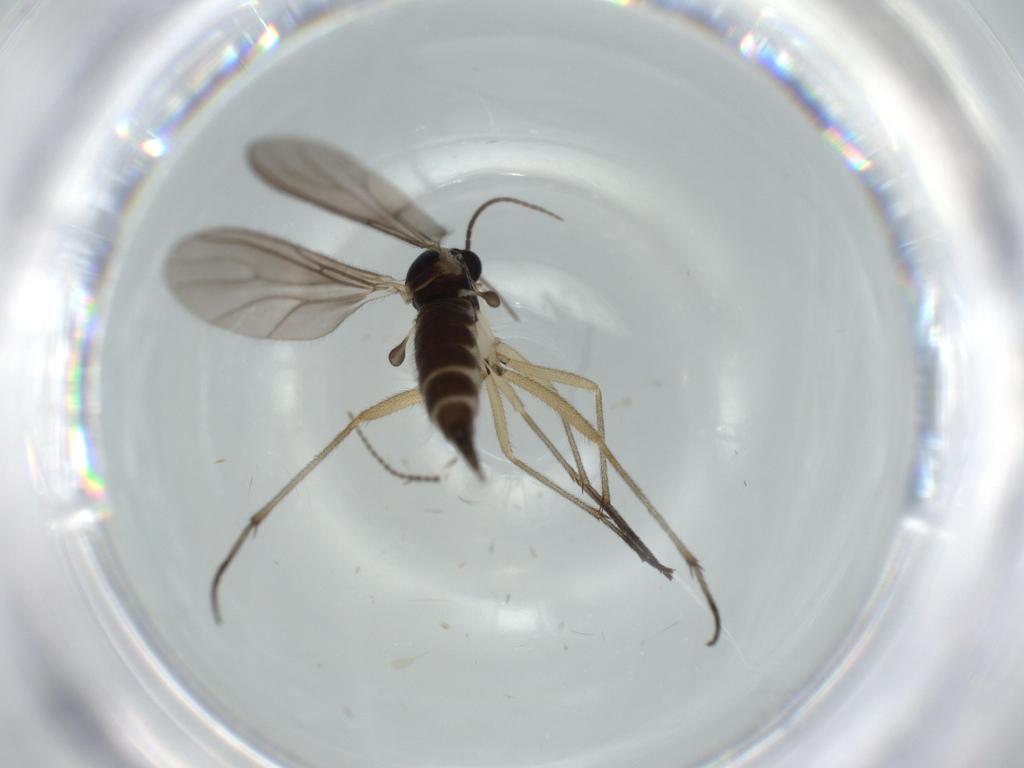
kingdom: Animalia
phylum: Arthropoda
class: Insecta
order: Diptera
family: Sciaridae
